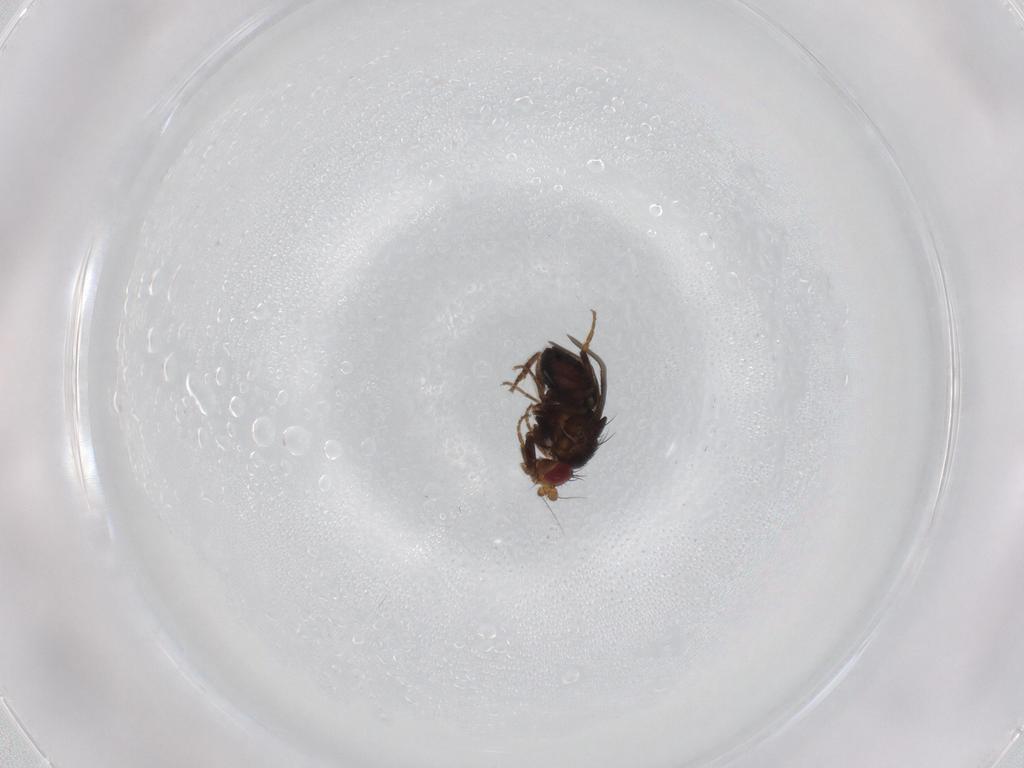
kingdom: Animalia
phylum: Arthropoda
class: Insecta
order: Diptera
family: Sphaeroceridae
